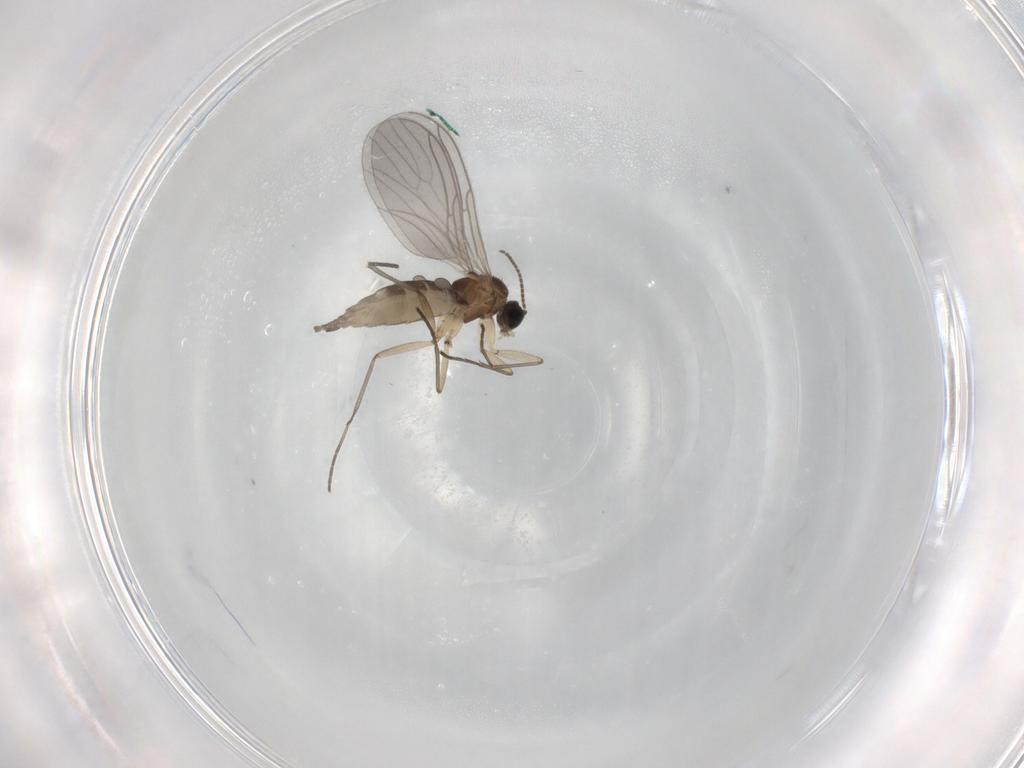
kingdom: Animalia
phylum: Arthropoda
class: Insecta
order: Diptera
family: Sciaridae
